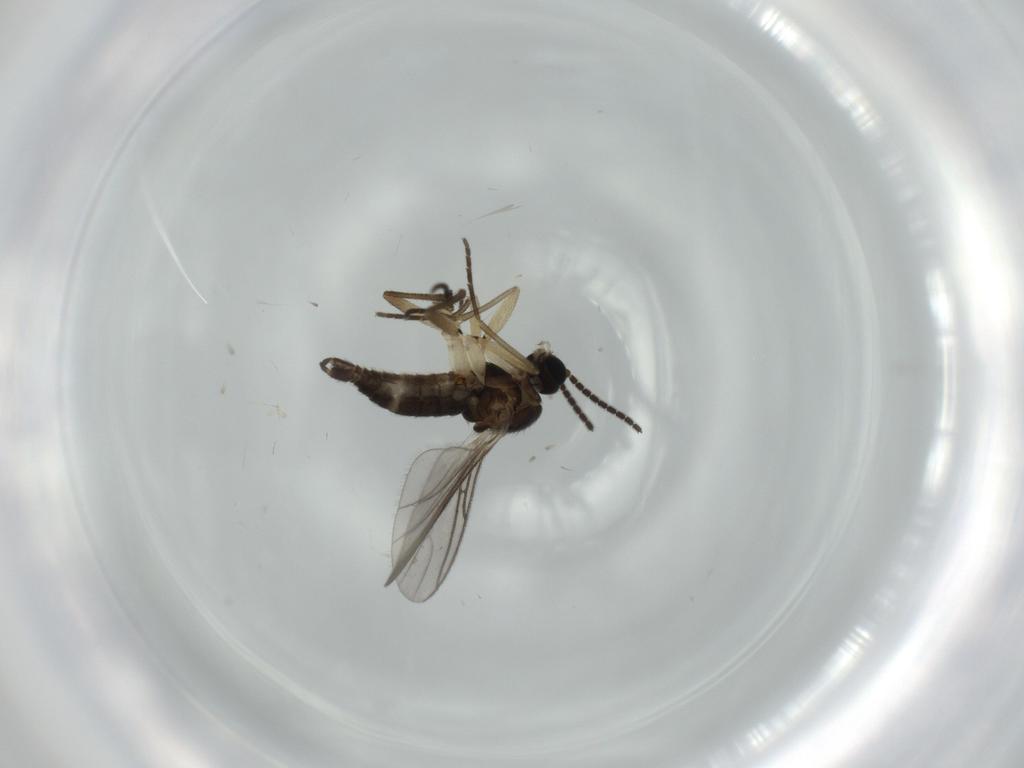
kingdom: Animalia
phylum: Arthropoda
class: Insecta
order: Diptera
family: Sciaridae
